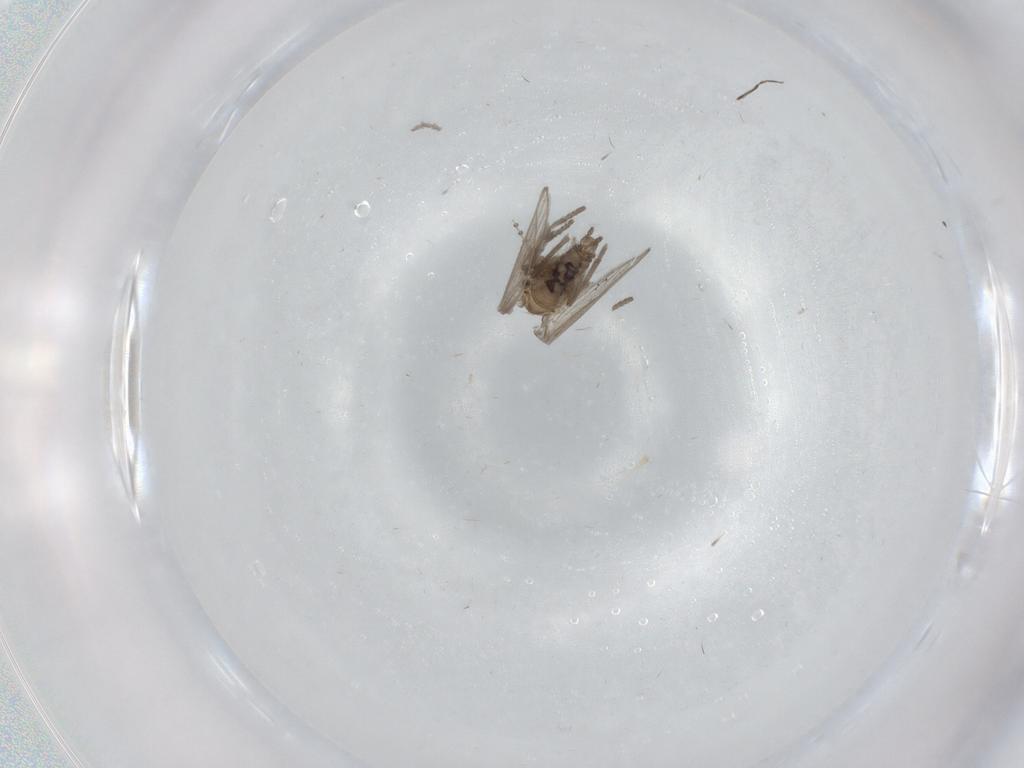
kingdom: Animalia
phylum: Arthropoda
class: Insecta
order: Diptera
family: Psychodidae
